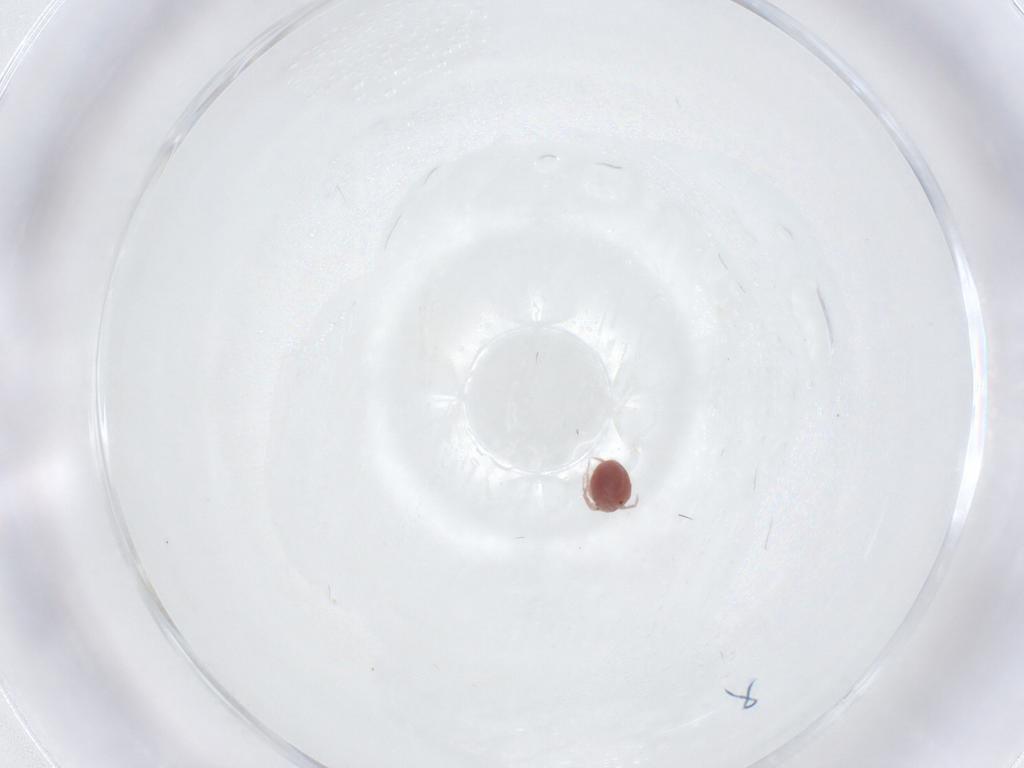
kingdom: Animalia
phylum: Arthropoda
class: Arachnida
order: Trombidiformes
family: Lebertiidae
